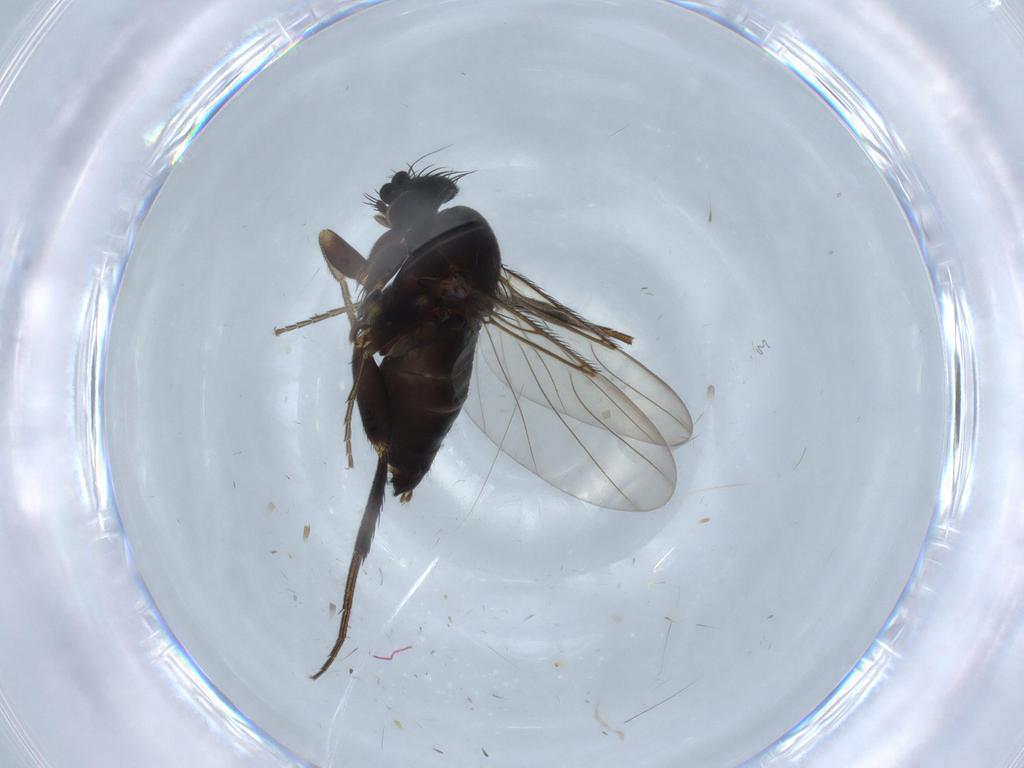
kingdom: Animalia
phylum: Arthropoda
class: Insecta
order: Diptera
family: Phoridae
